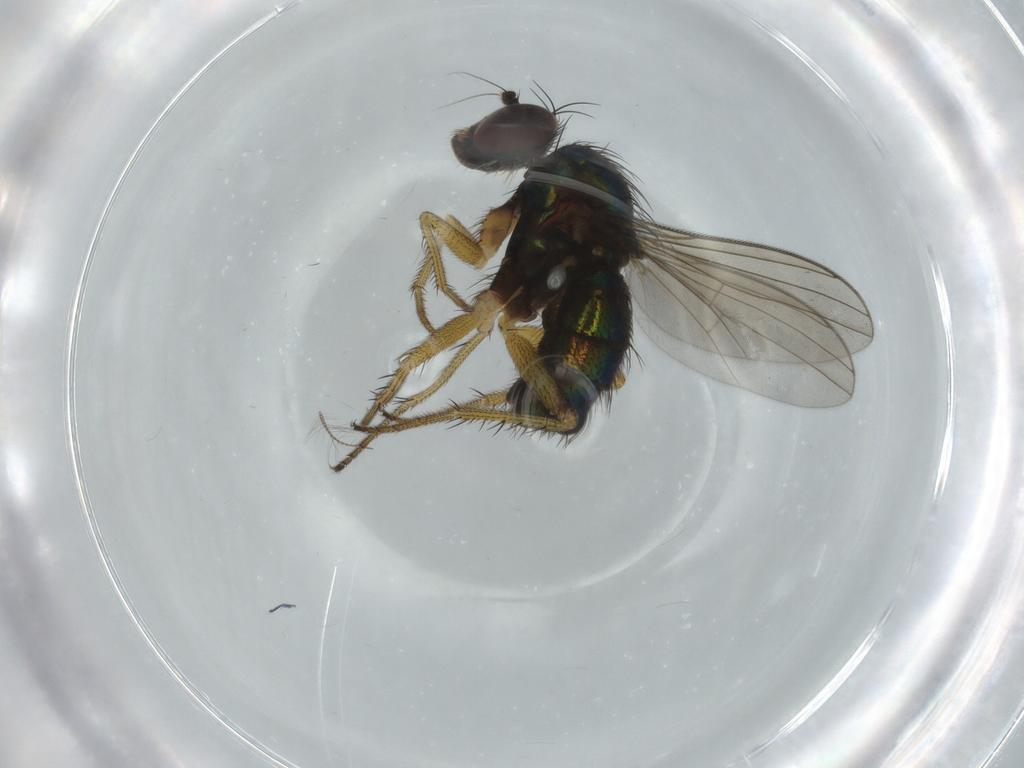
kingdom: Animalia
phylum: Arthropoda
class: Insecta
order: Diptera
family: Dolichopodidae
